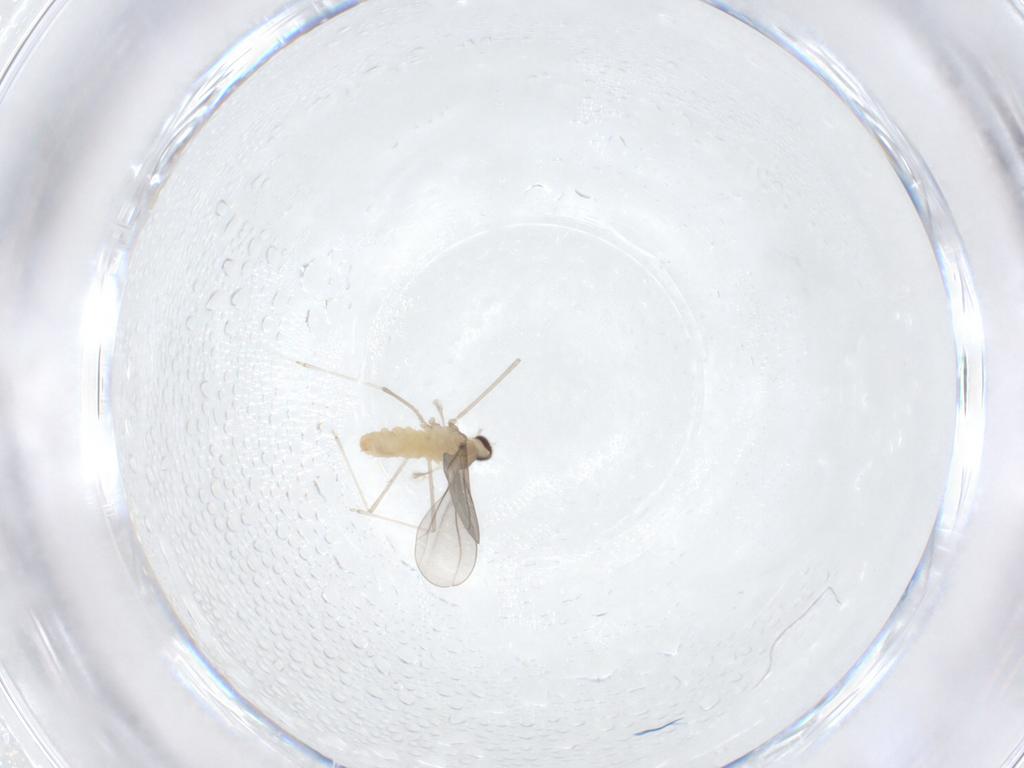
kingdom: Animalia
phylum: Arthropoda
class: Insecta
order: Diptera
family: Cecidomyiidae
